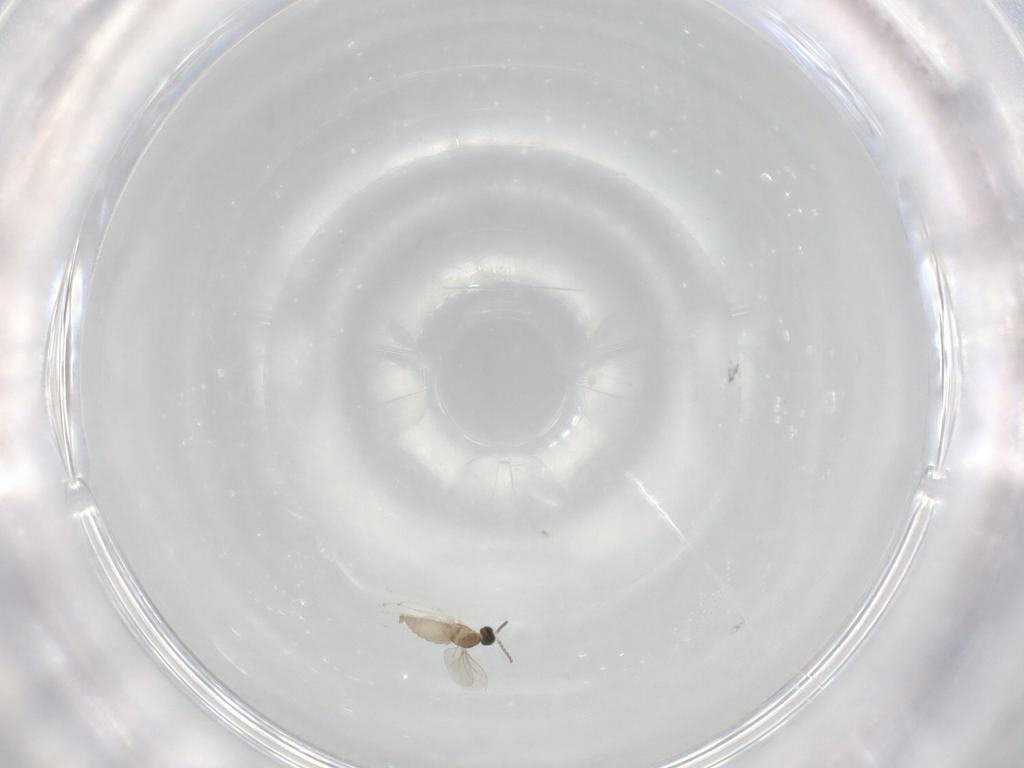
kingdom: Animalia
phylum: Arthropoda
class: Insecta
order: Diptera
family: Cecidomyiidae
